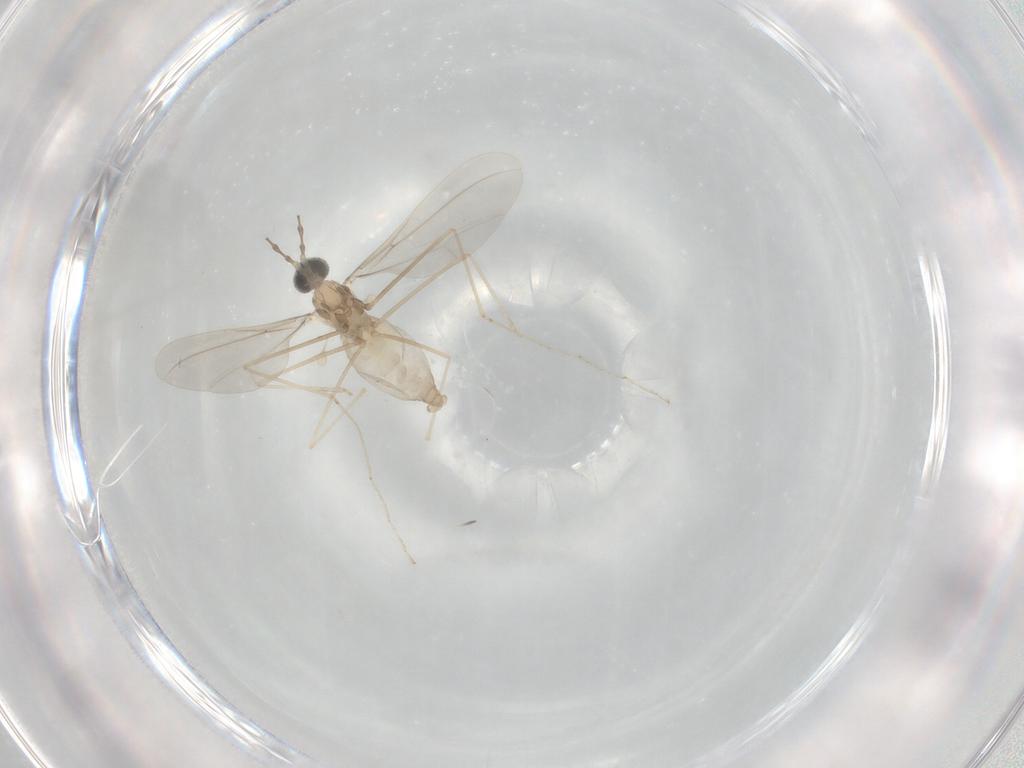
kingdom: Animalia
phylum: Arthropoda
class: Insecta
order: Diptera
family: Cecidomyiidae
